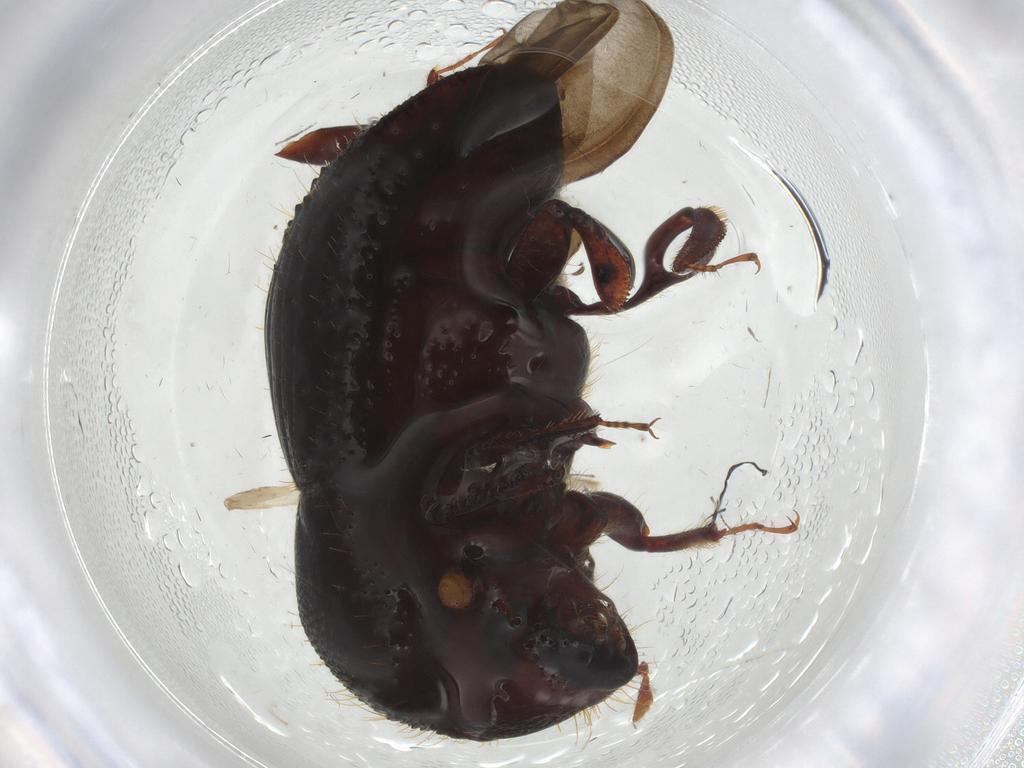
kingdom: Animalia
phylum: Arthropoda
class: Insecta
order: Coleoptera
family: Curculionidae
